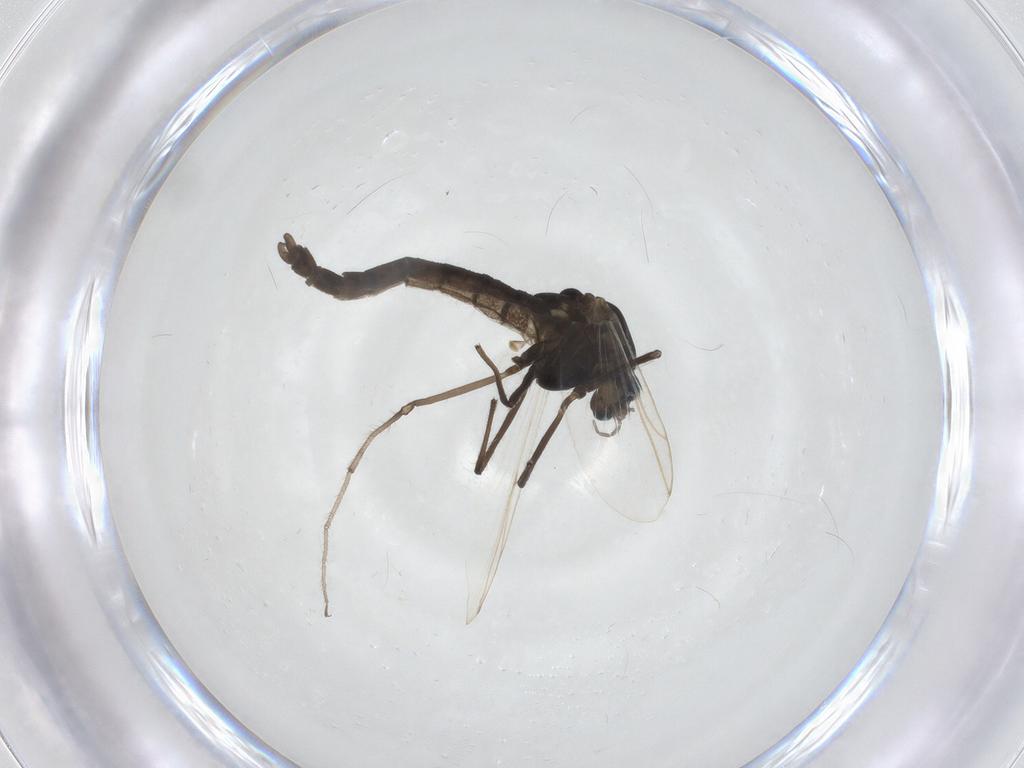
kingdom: Animalia
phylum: Arthropoda
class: Insecta
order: Diptera
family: Chironomidae
